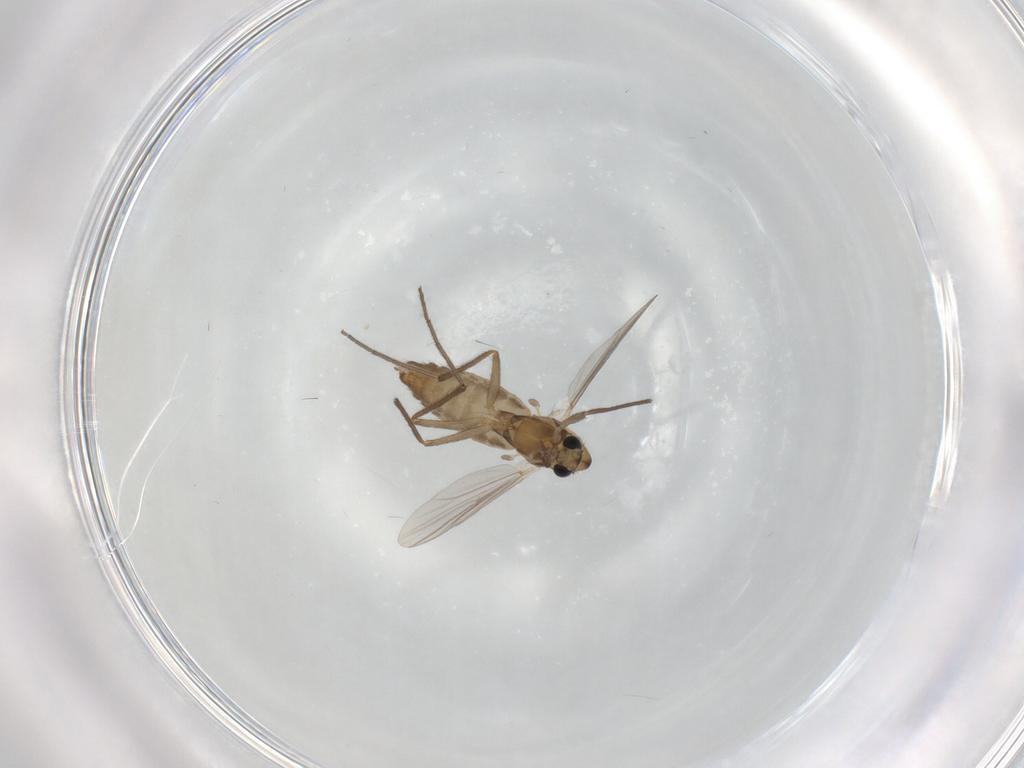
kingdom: Animalia
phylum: Arthropoda
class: Insecta
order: Diptera
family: Chironomidae
